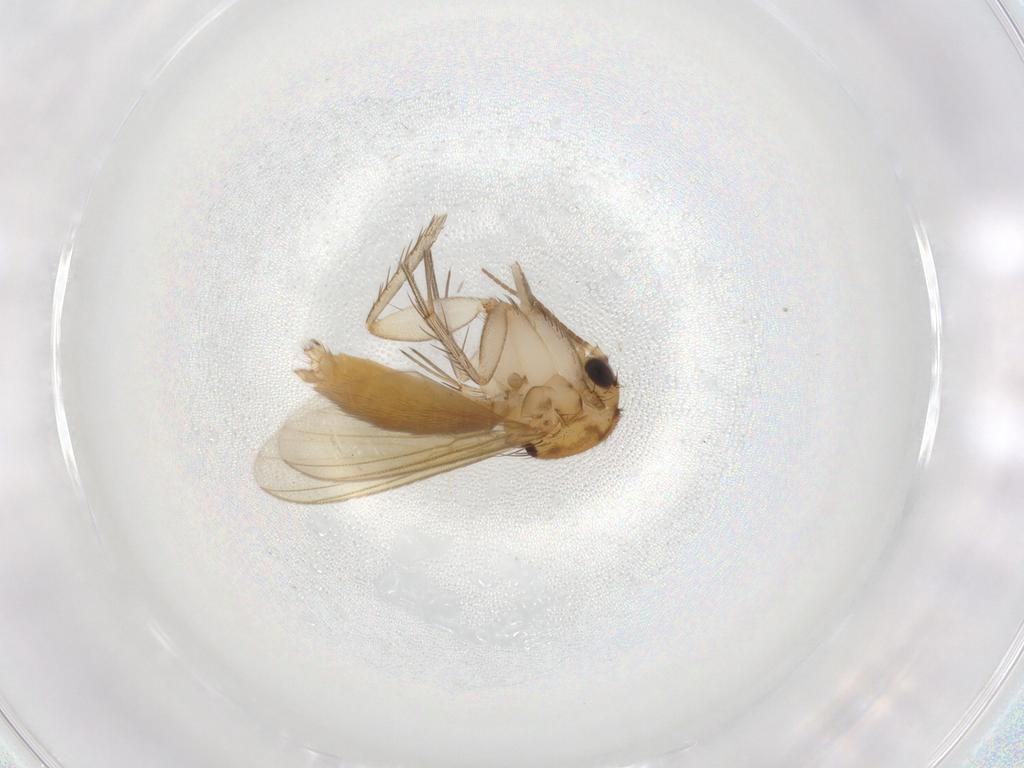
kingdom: Animalia
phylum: Arthropoda
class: Insecta
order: Diptera
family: Mycetophilidae
